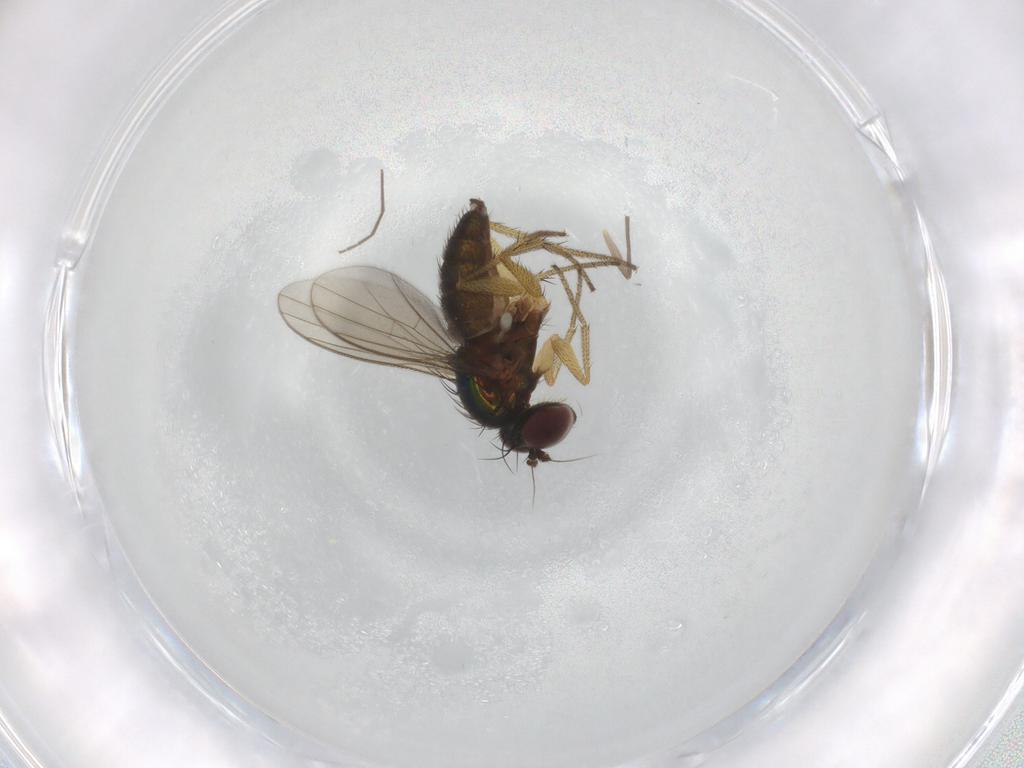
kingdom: Animalia
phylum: Arthropoda
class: Insecta
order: Diptera
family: Chironomidae
